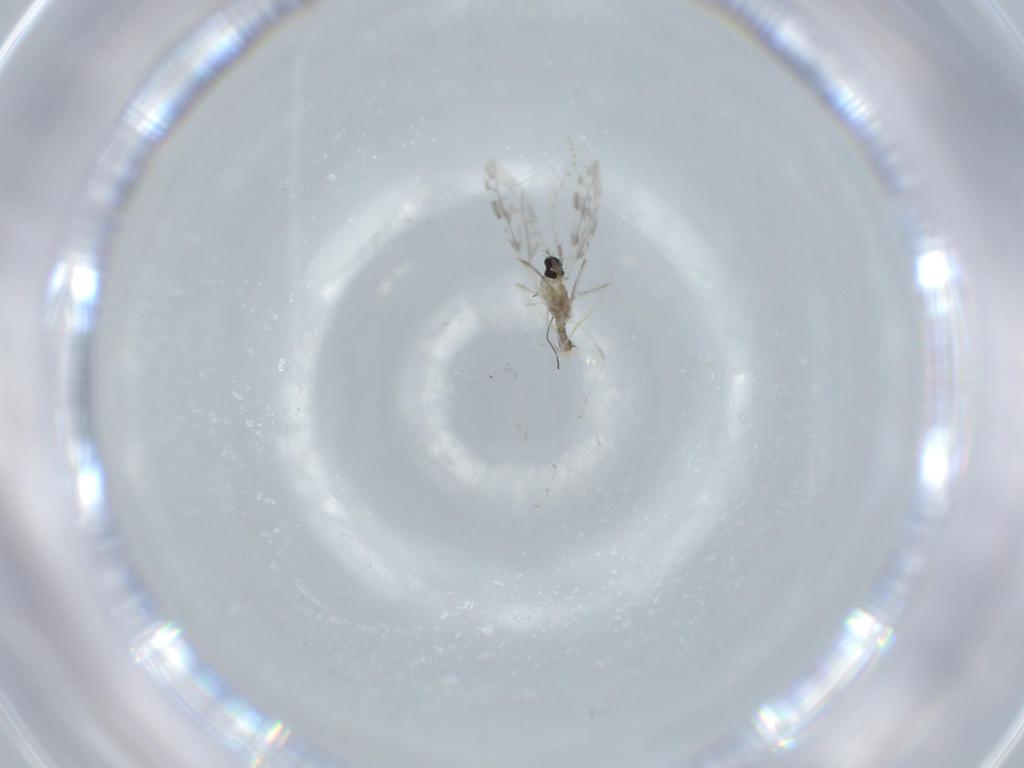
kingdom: Animalia
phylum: Arthropoda
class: Insecta
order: Diptera
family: Cecidomyiidae
